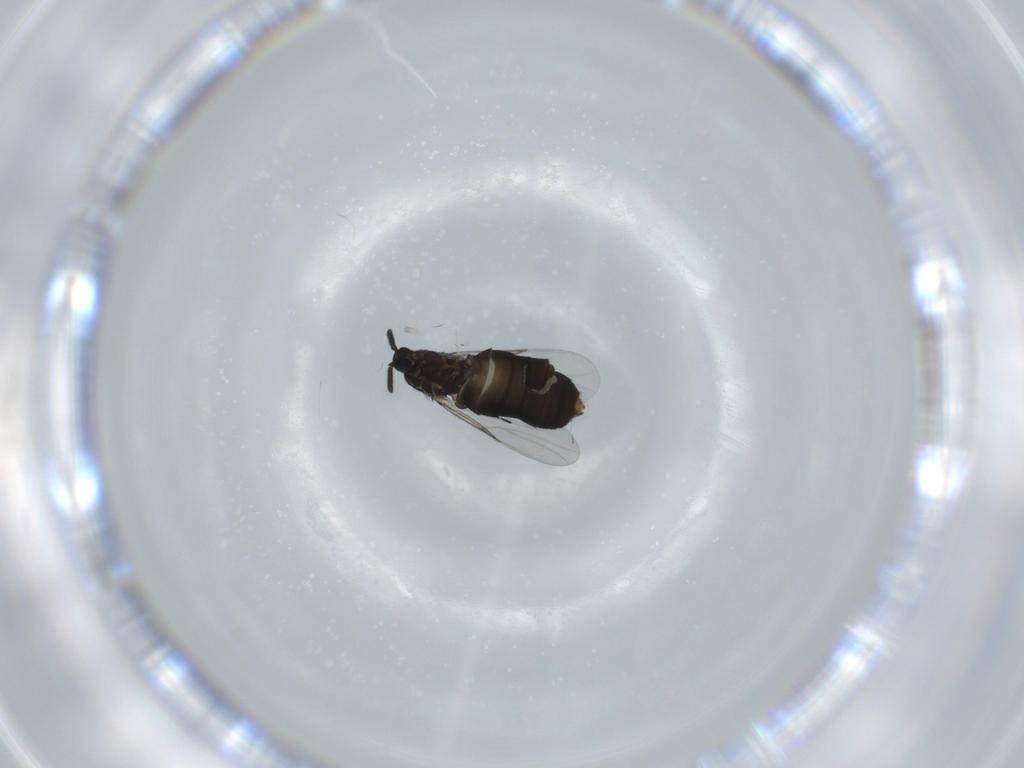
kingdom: Animalia
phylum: Arthropoda
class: Insecta
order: Diptera
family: Scatopsidae
